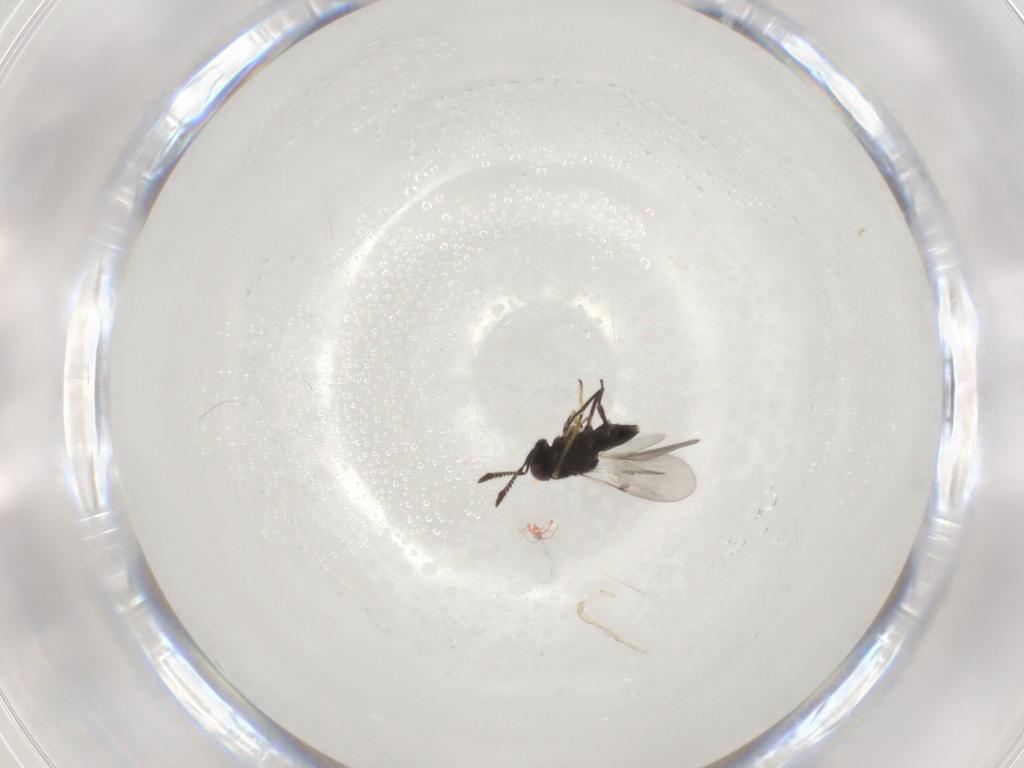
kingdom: Animalia
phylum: Arthropoda
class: Insecta
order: Hymenoptera
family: Encyrtidae
